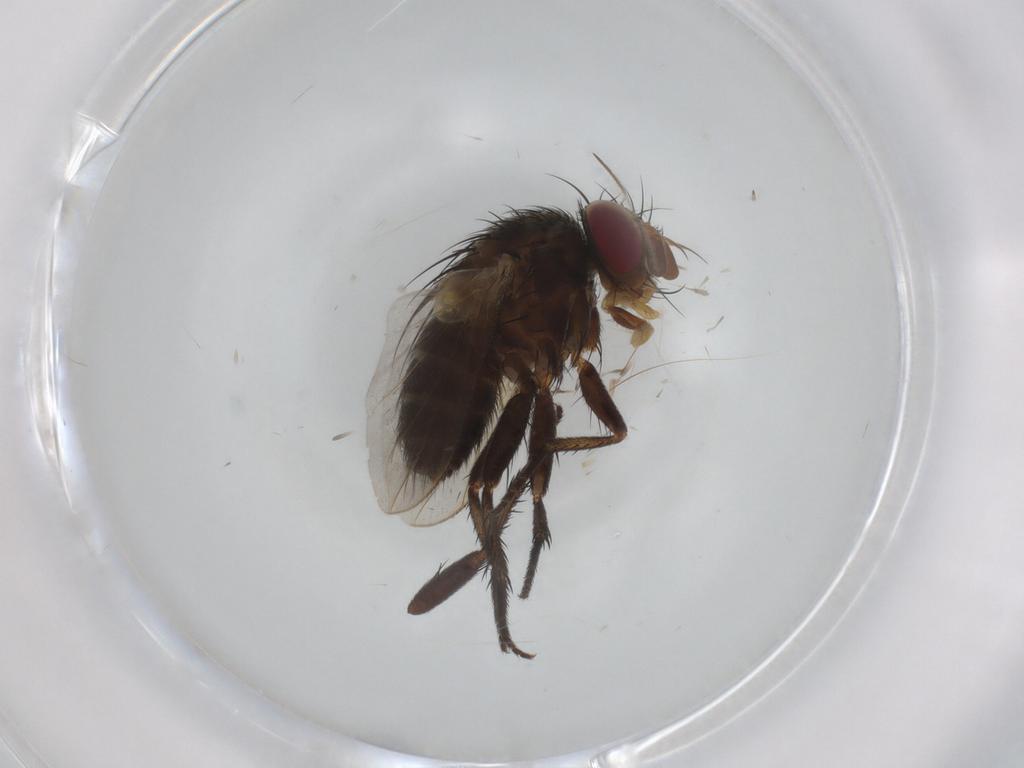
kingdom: Animalia
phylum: Arthropoda
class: Insecta
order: Diptera
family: Tachinidae
